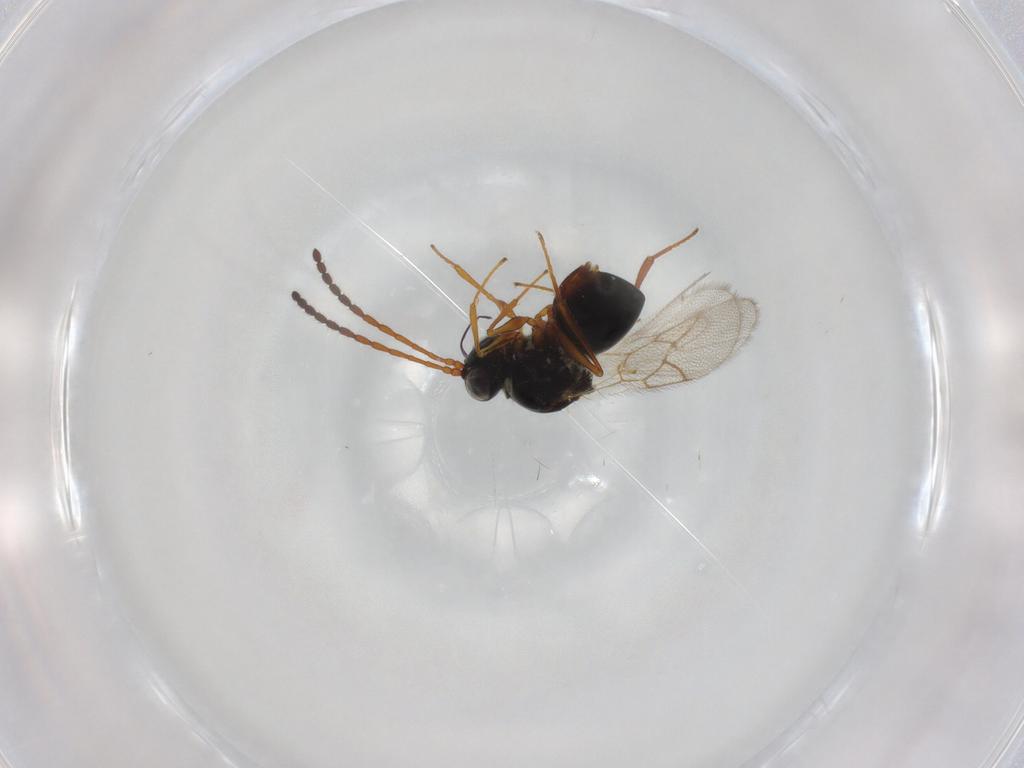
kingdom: Animalia
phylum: Arthropoda
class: Insecta
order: Hymenoptera
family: Figitidae
